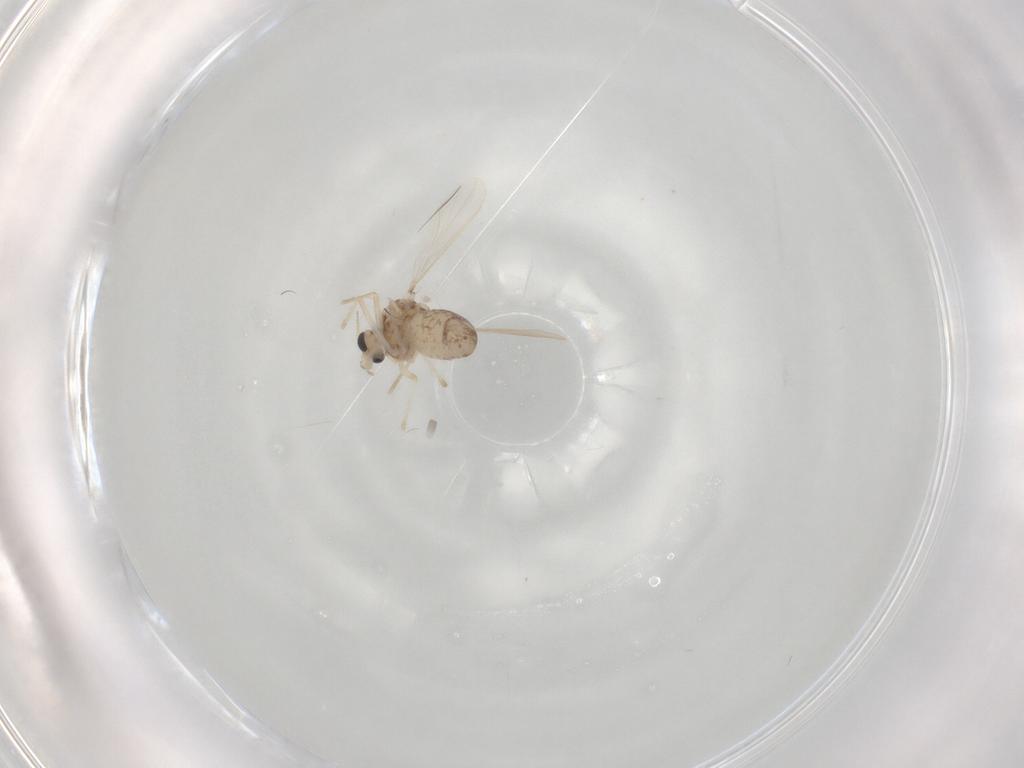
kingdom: Animalia
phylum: Arthropoda
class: Insecta
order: Diptera
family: Chironomidae
